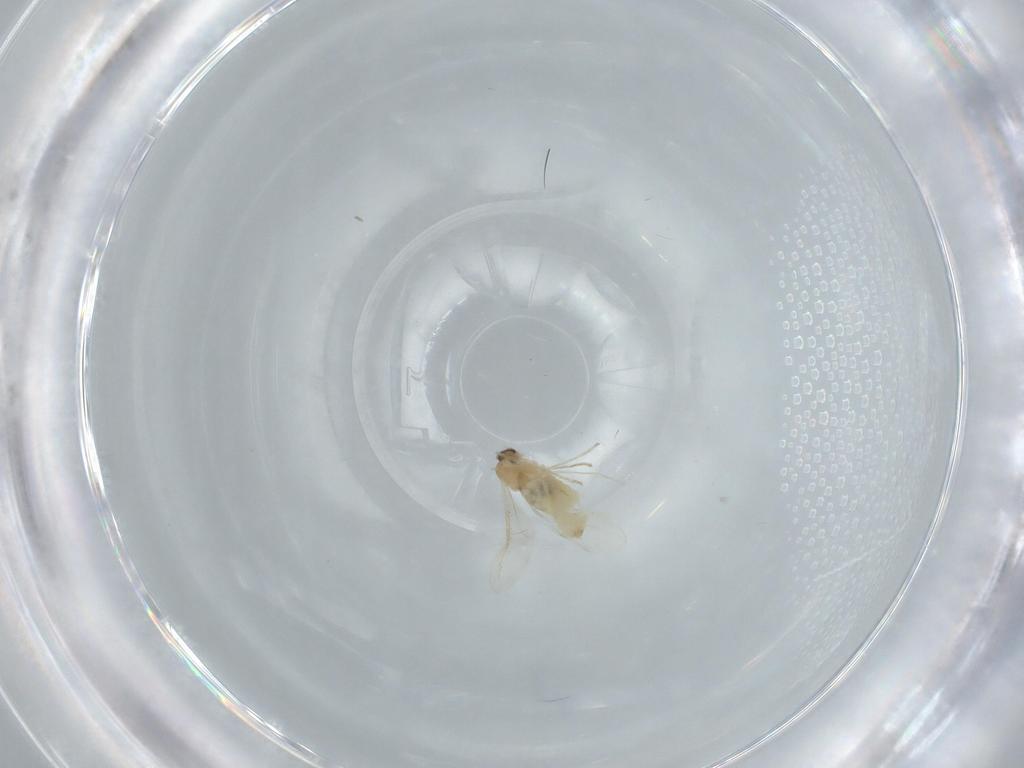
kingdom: Animalia
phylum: Arthropoda
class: Insecta
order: Diptera
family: Cecidomyiidae
